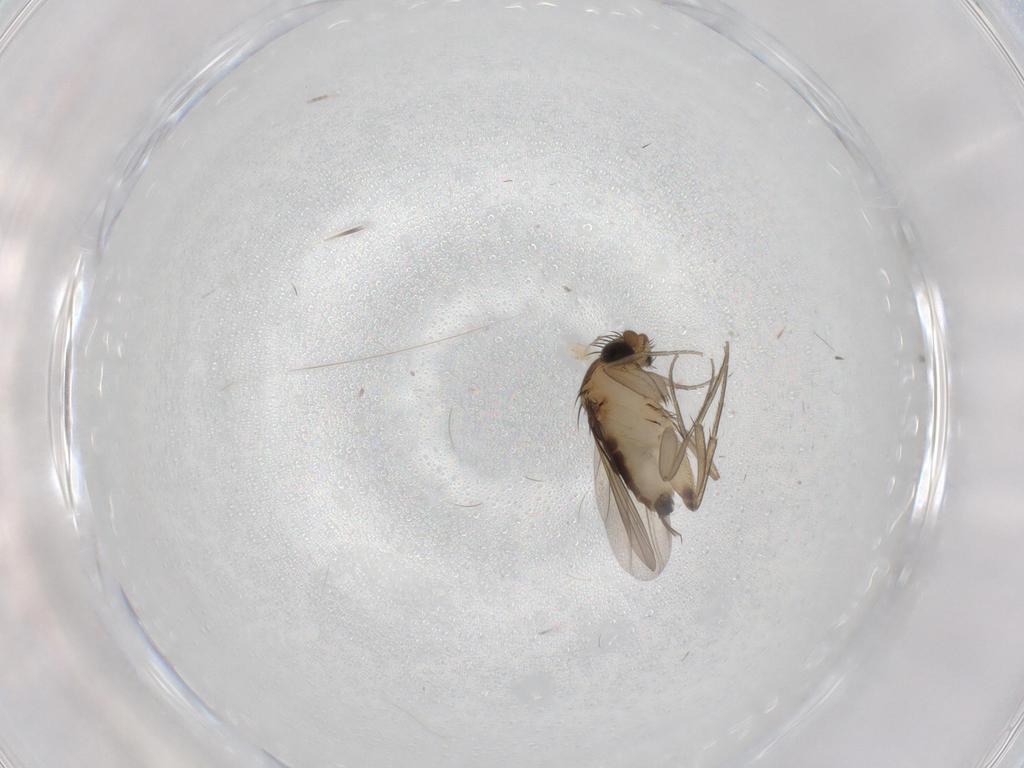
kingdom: Animalia
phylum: Arthropoda
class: Insecta
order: Diptera
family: Phoridae
